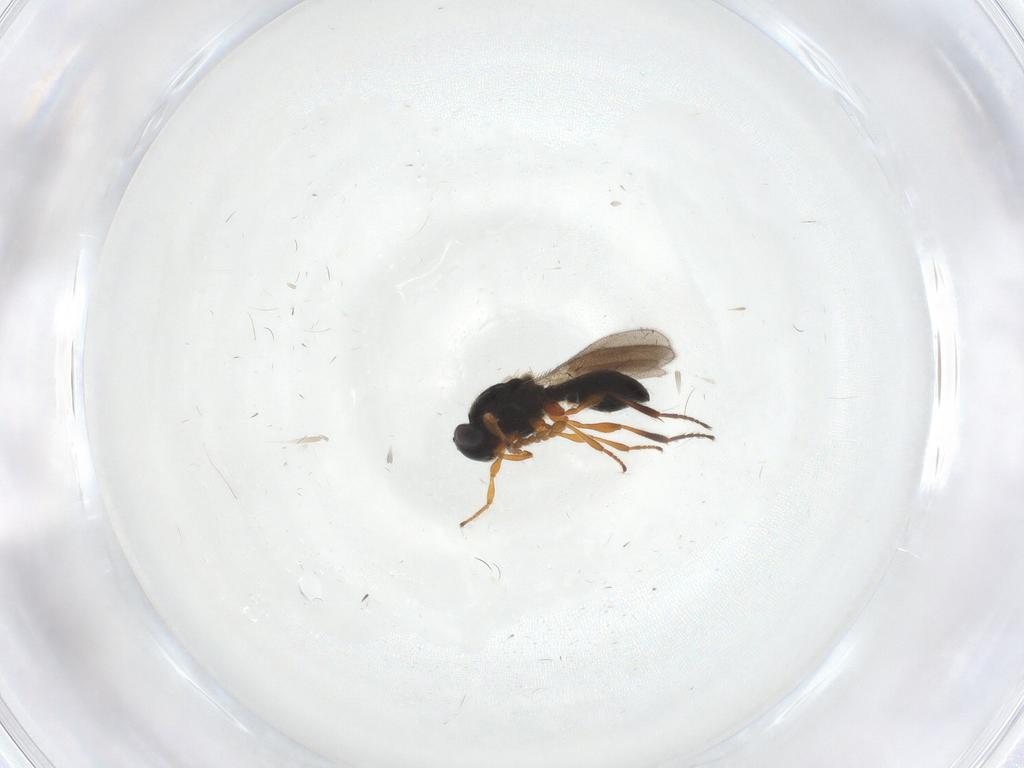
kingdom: Animalia
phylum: Arthropoda
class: Insecta
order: Hymenoptera
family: Platygastridae
